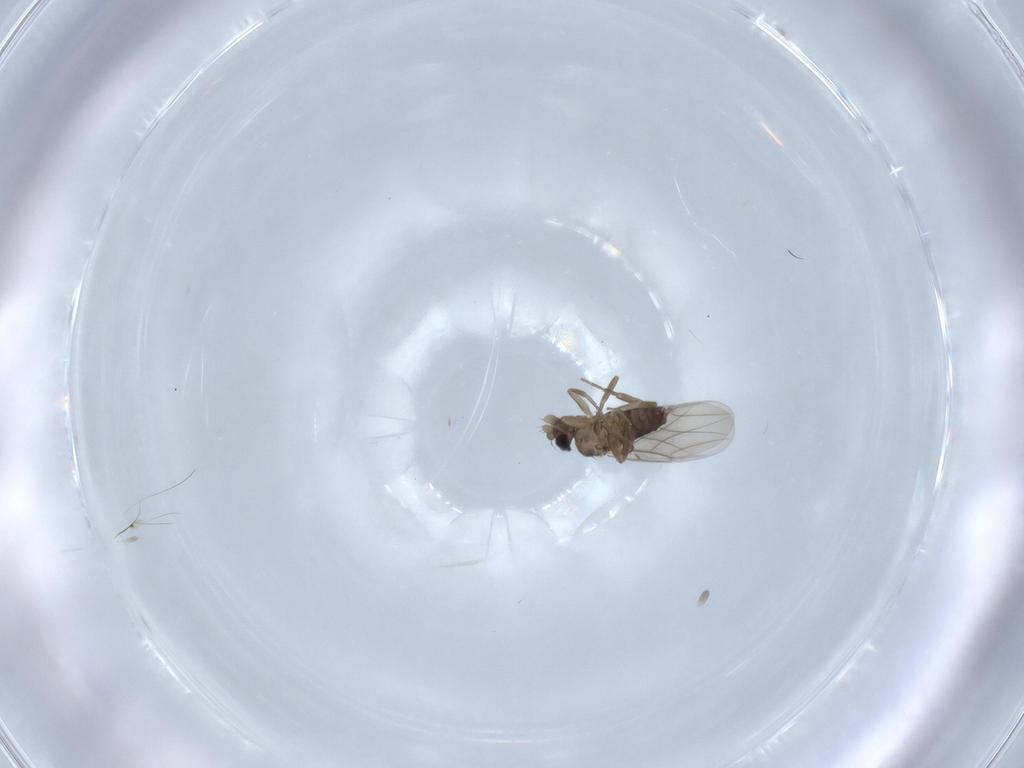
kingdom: Animalia
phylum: Arthropoda
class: Insecta
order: Diptera
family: Phoridae
